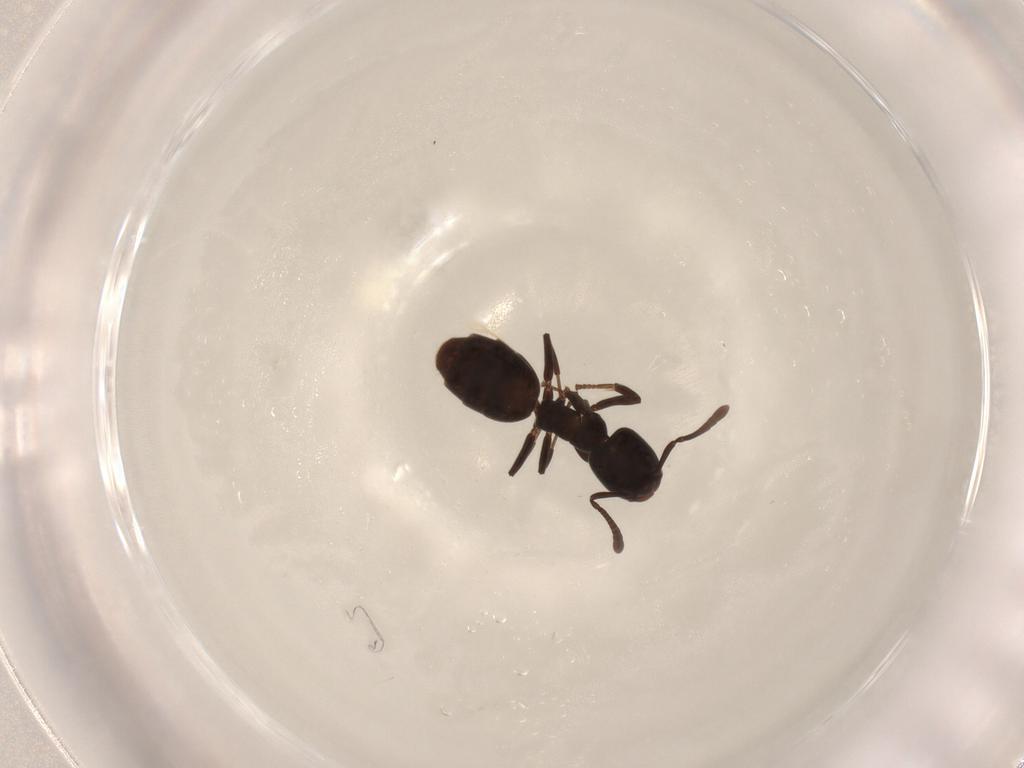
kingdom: Animalia
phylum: Arthropoda
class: Insecta
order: Hymenoptera
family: Formicidae
